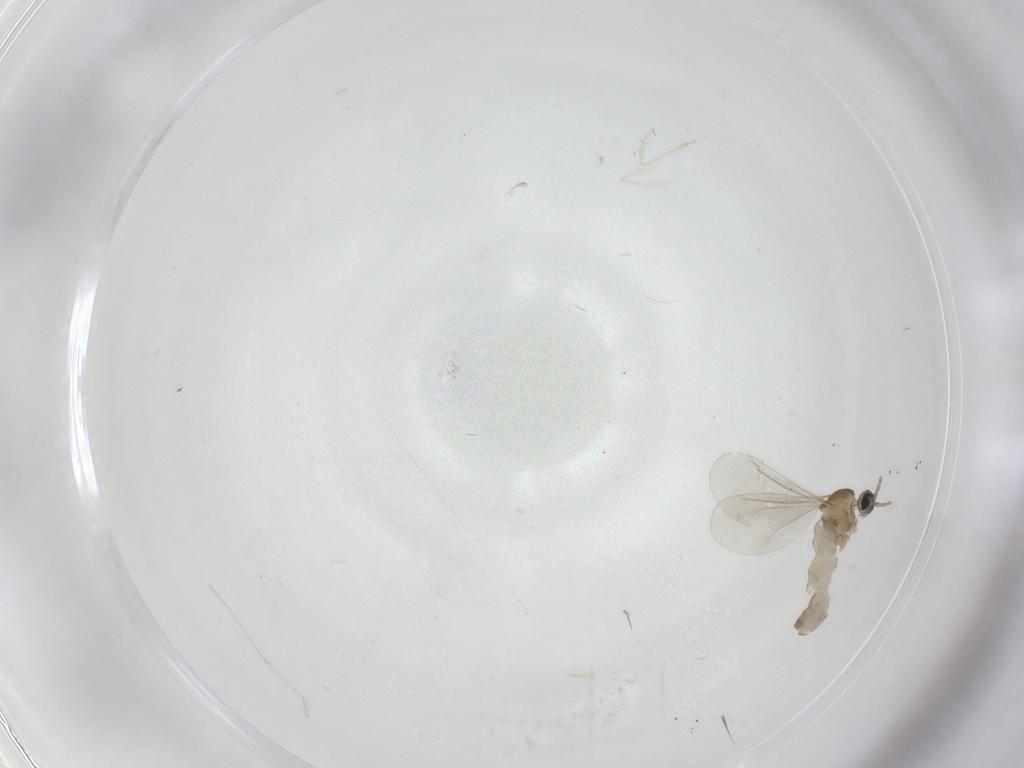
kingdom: Animalia
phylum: Arthropoda
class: Insecta
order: Diptera
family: Cecidomyiidae
